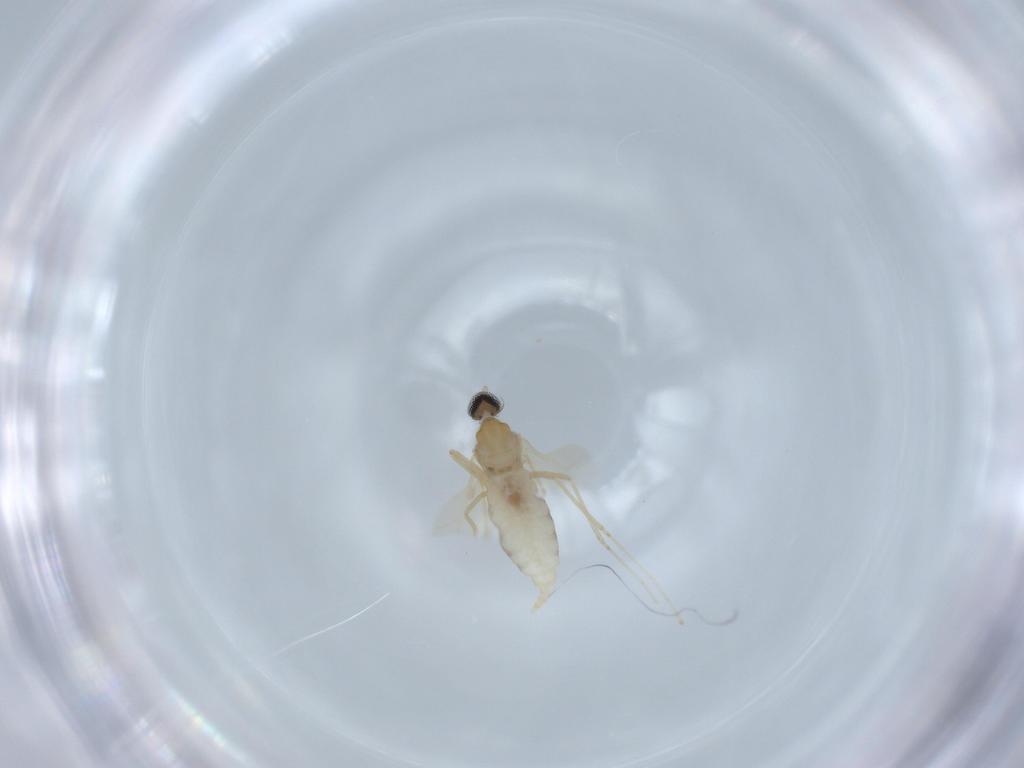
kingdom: Animalia
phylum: Arthropoda
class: Insecta
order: Diptera
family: Cecidomyiidae
